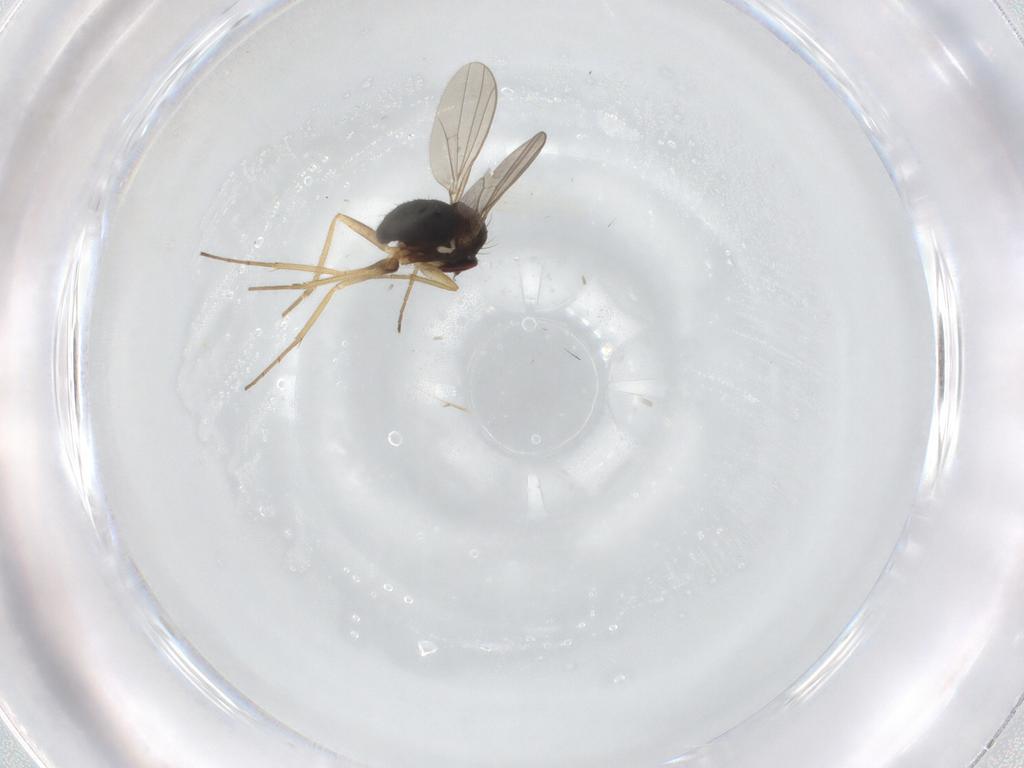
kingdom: Animalia
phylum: Arthropoda
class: Insecta
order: Diptera
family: Dolichopodidae
